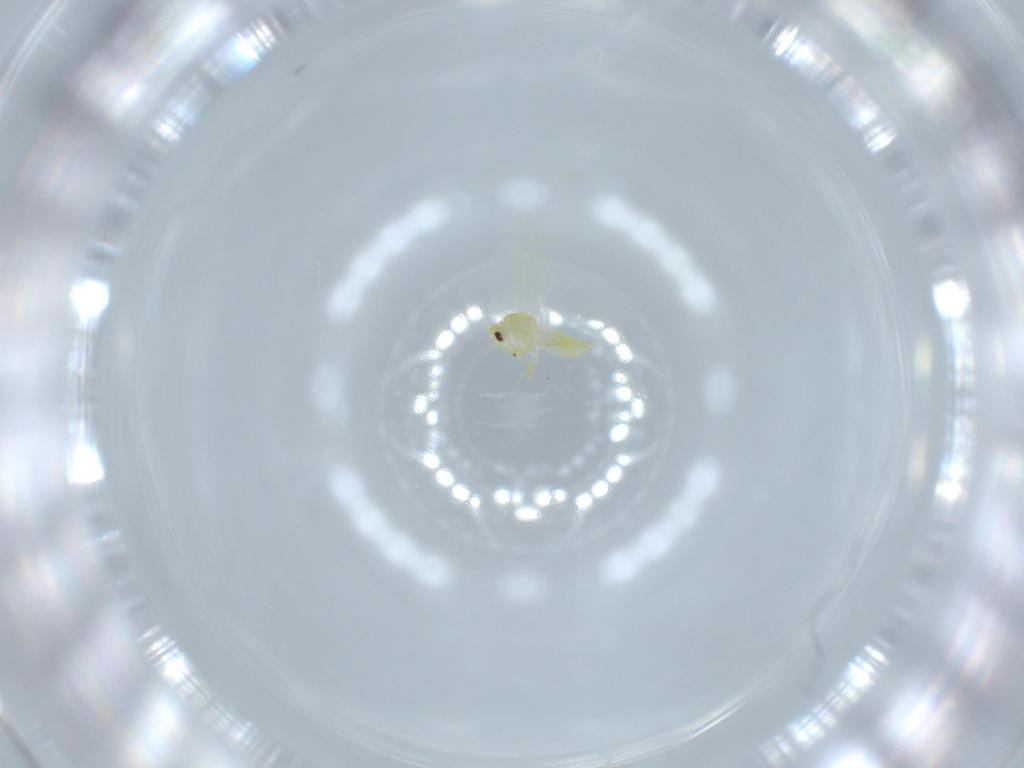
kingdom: Animalia
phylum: Arthropoda
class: Insecta
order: Hemiptera
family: Aleyrodidae
